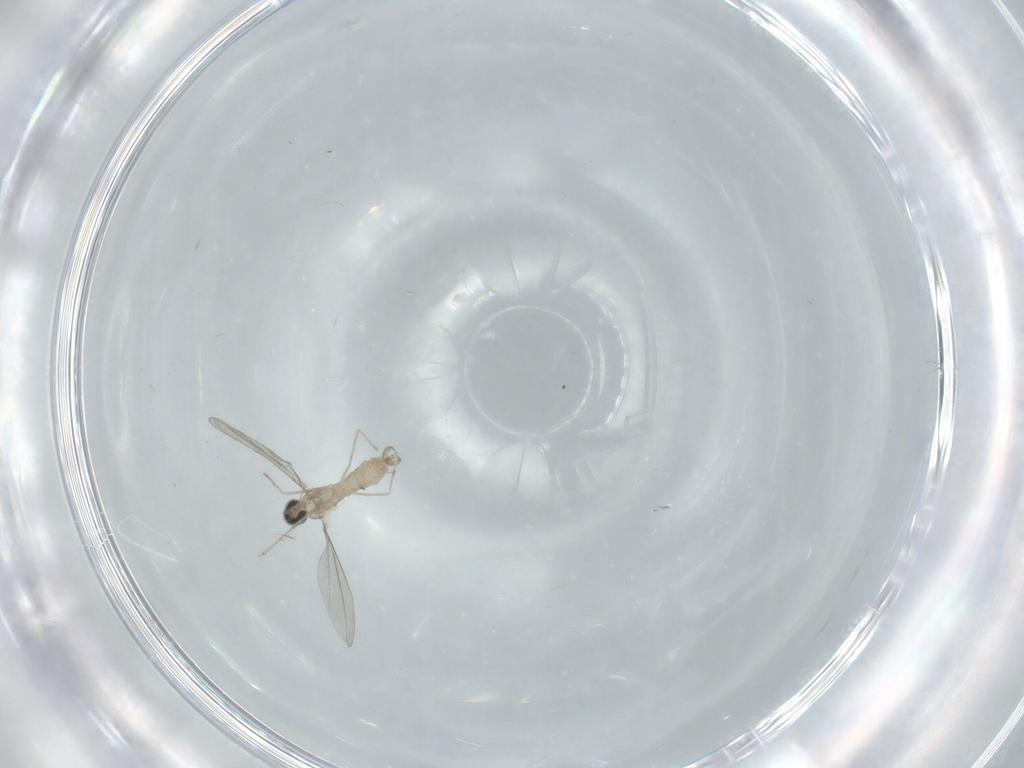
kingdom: Animalia
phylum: Arthropoda
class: Insecta
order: Diptera
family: Cecidomyiidae
